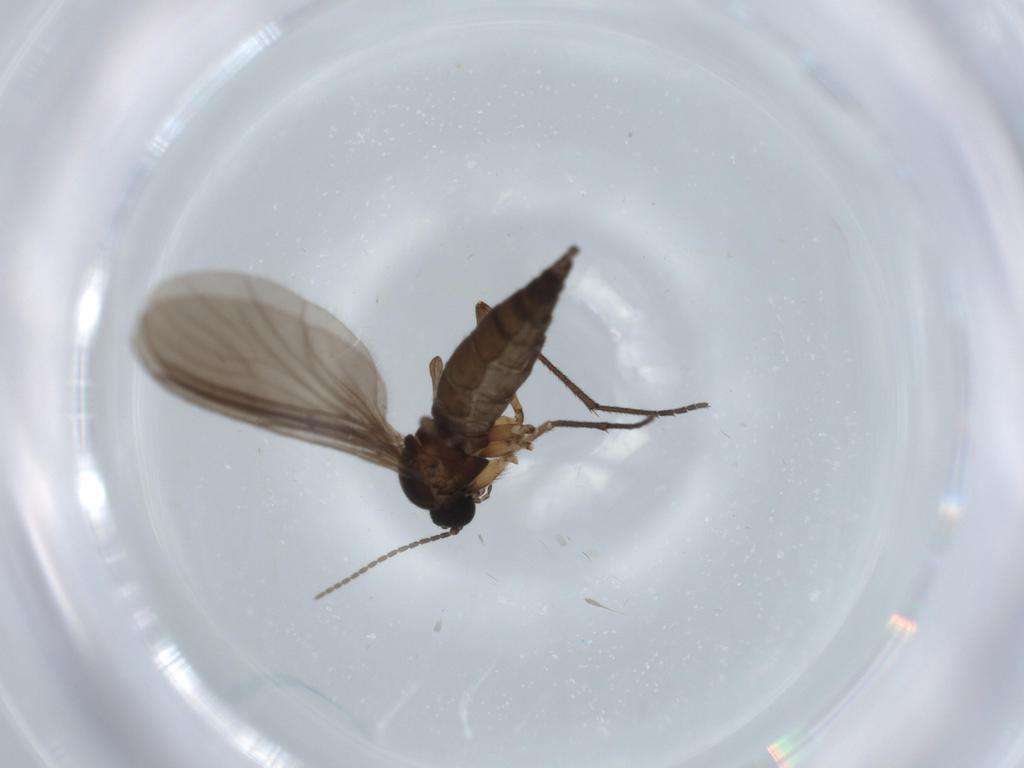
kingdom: Animalia
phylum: Arthropoda
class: Insecta
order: Diptera
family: Sciaridae
